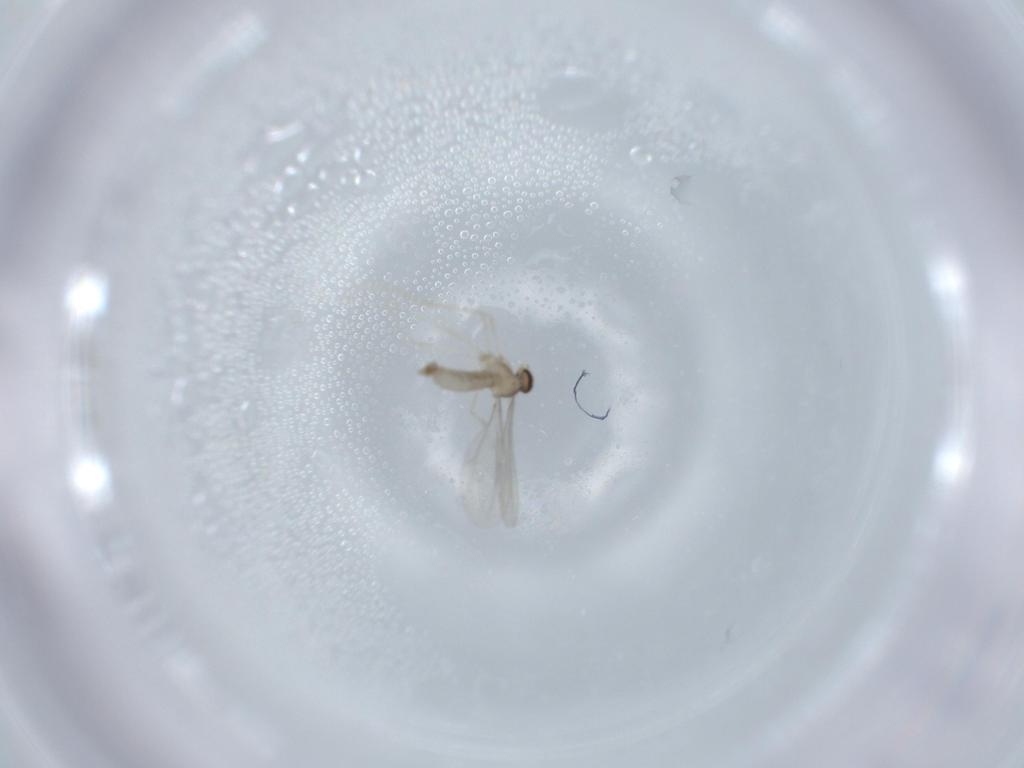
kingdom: Animalia
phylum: Arthropoda
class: Insecta
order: Diptera
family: Cecidomyiidae
